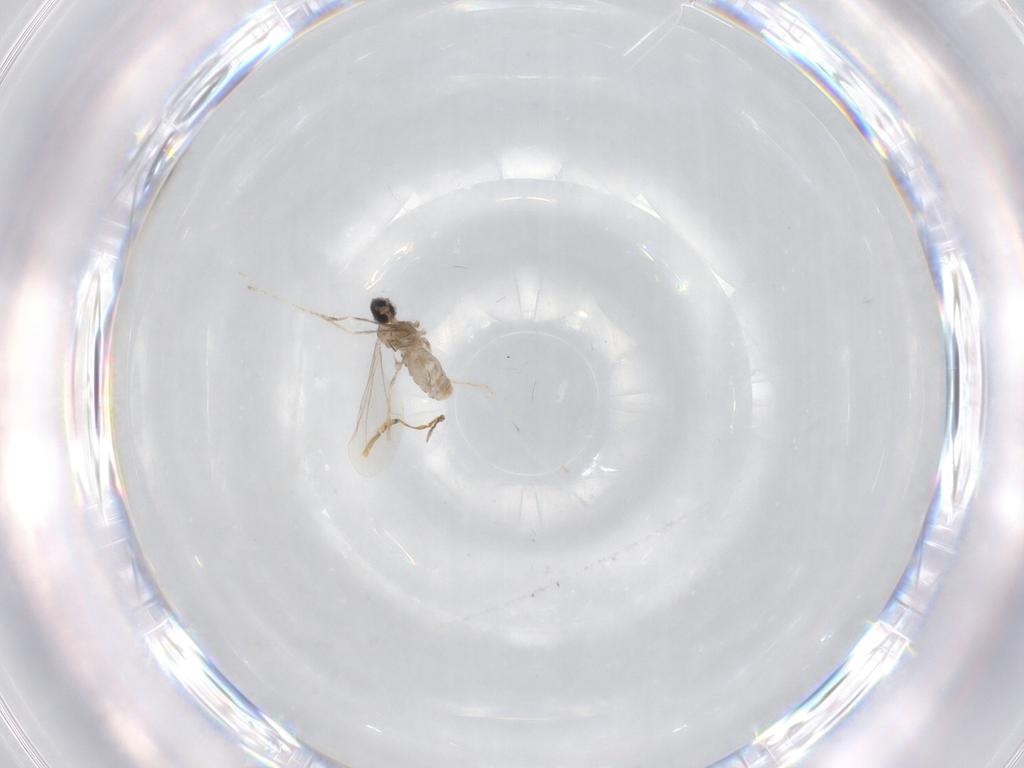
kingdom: Animalia
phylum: Arthropoda
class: Insecta
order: Diptera
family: Cecidomyiidae
